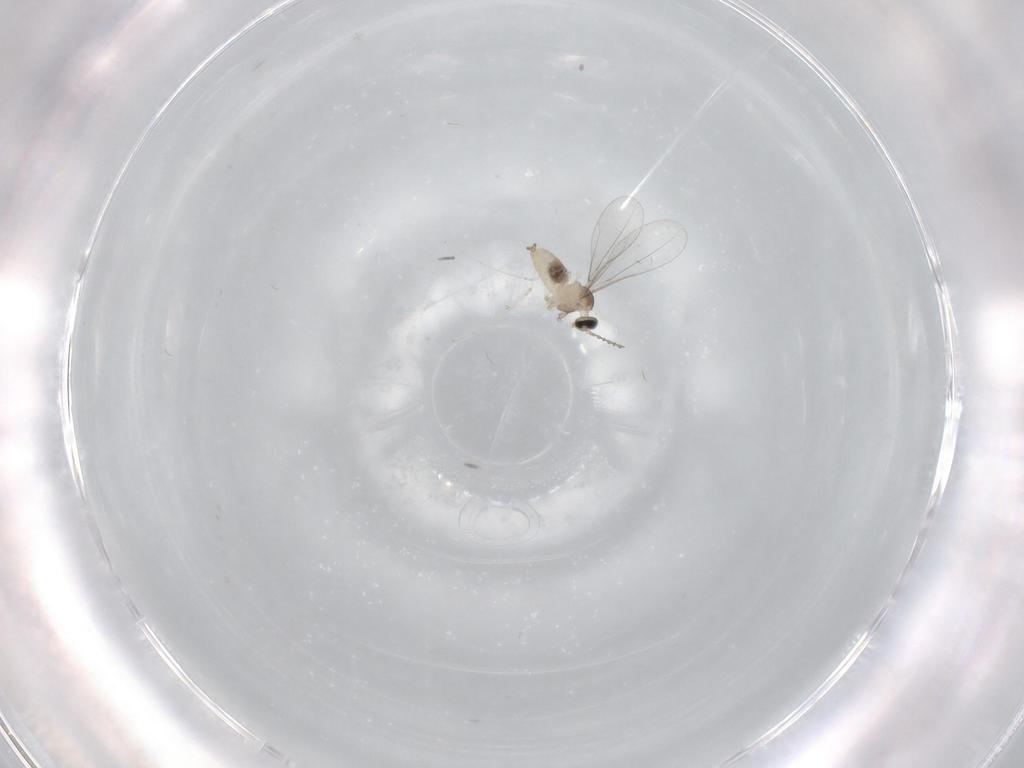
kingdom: Animalia
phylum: Arthropoda
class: Insecta
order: Diptera
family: Cecidomyiidae
